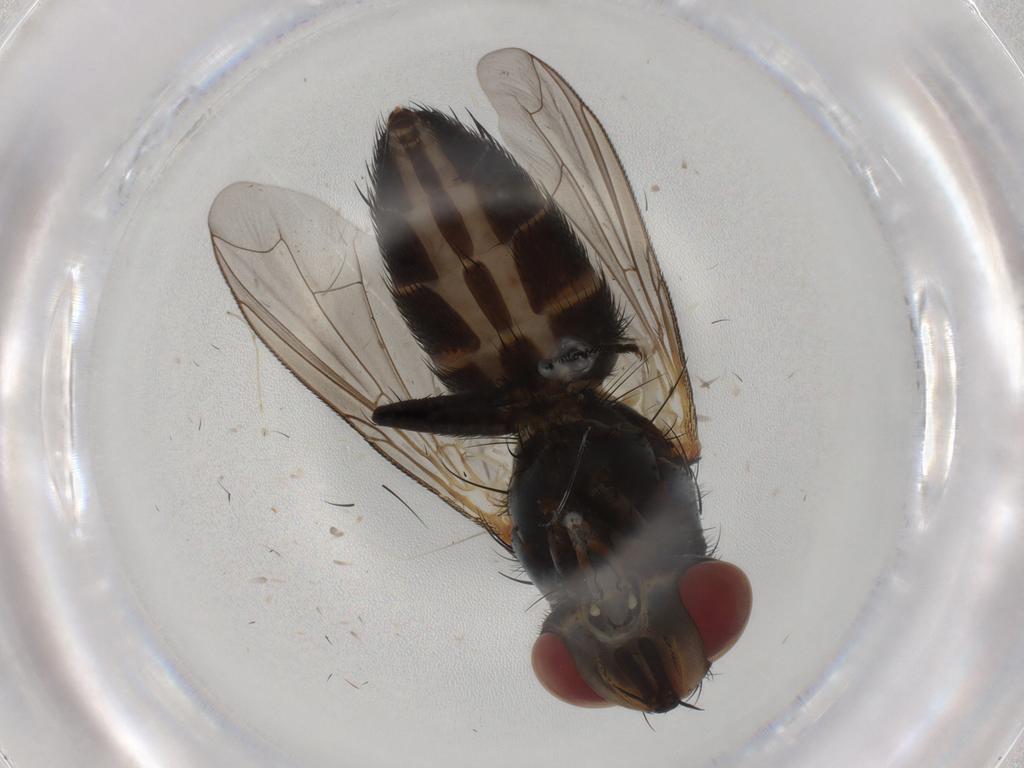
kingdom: Animalia
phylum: Arthropoda
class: Insecta
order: Diptera
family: Anthomyiidae
